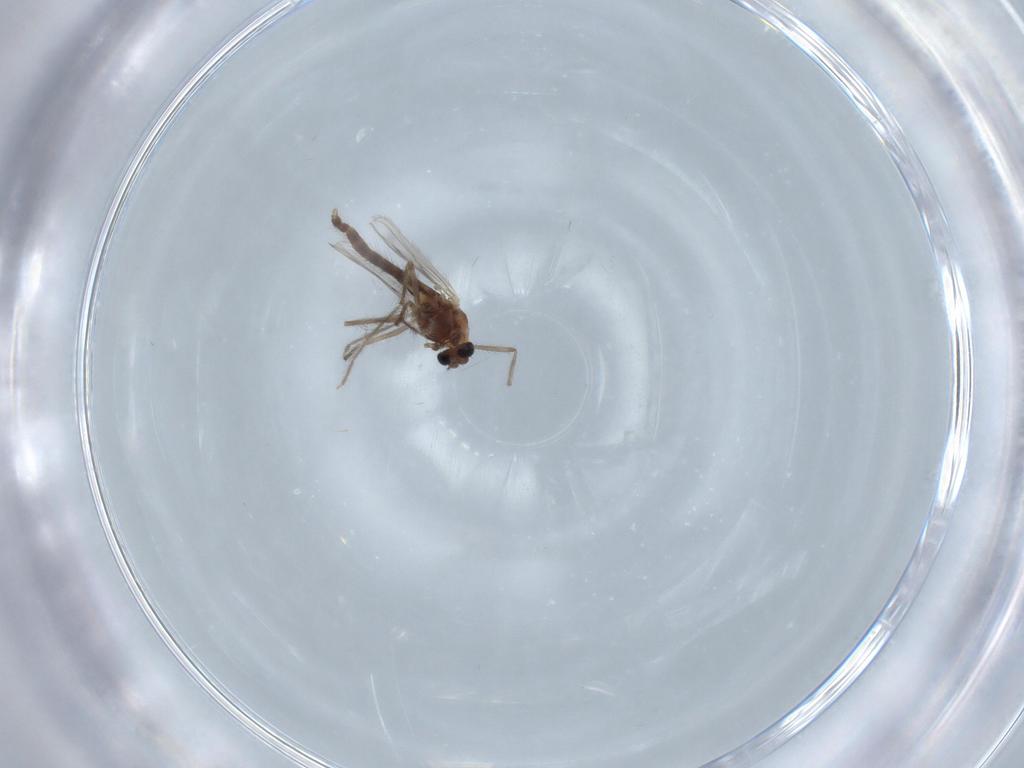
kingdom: Animalia
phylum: Arthropoda
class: Insecta
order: Diptera
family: Chironomidae
